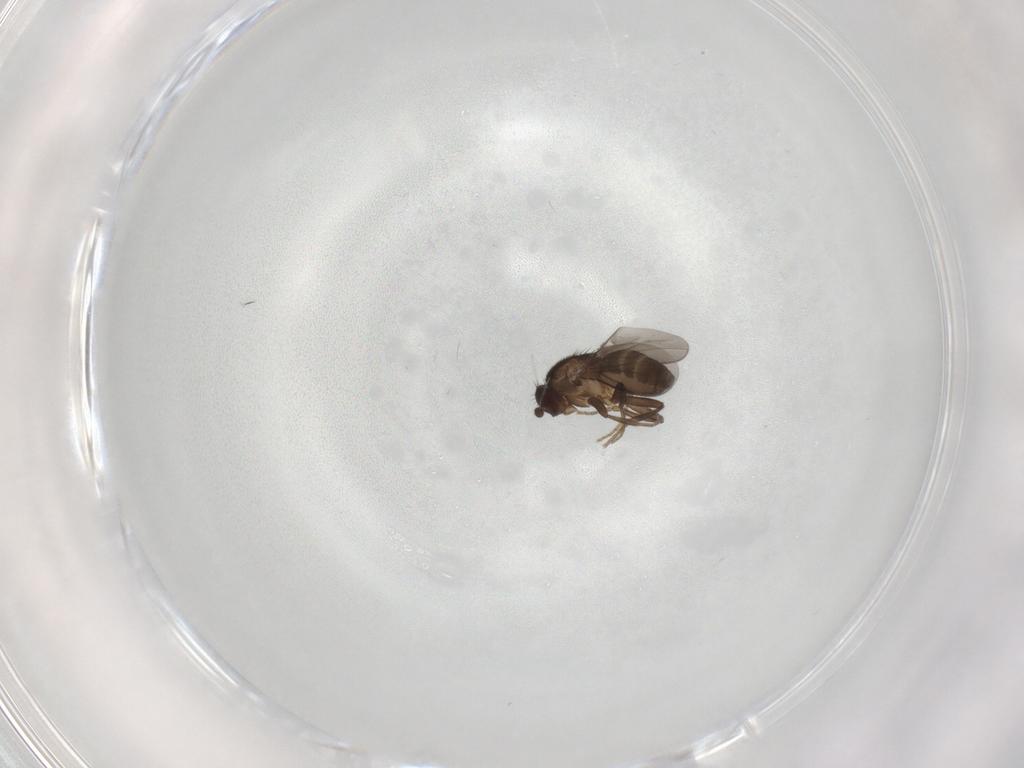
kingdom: Animalia
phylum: Arthropoda
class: Insecta
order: Diptera
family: Sphaeroceridae
